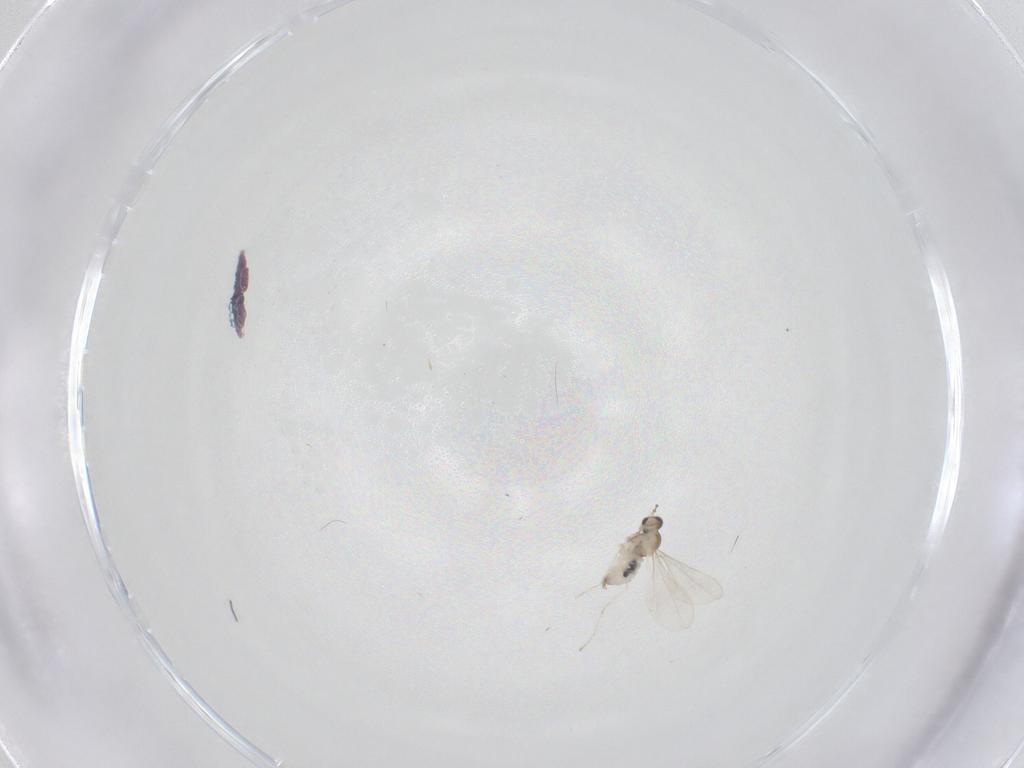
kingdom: Animalia
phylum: Arthropoda
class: Insecta
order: Diptera
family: Cecidomyiidae
